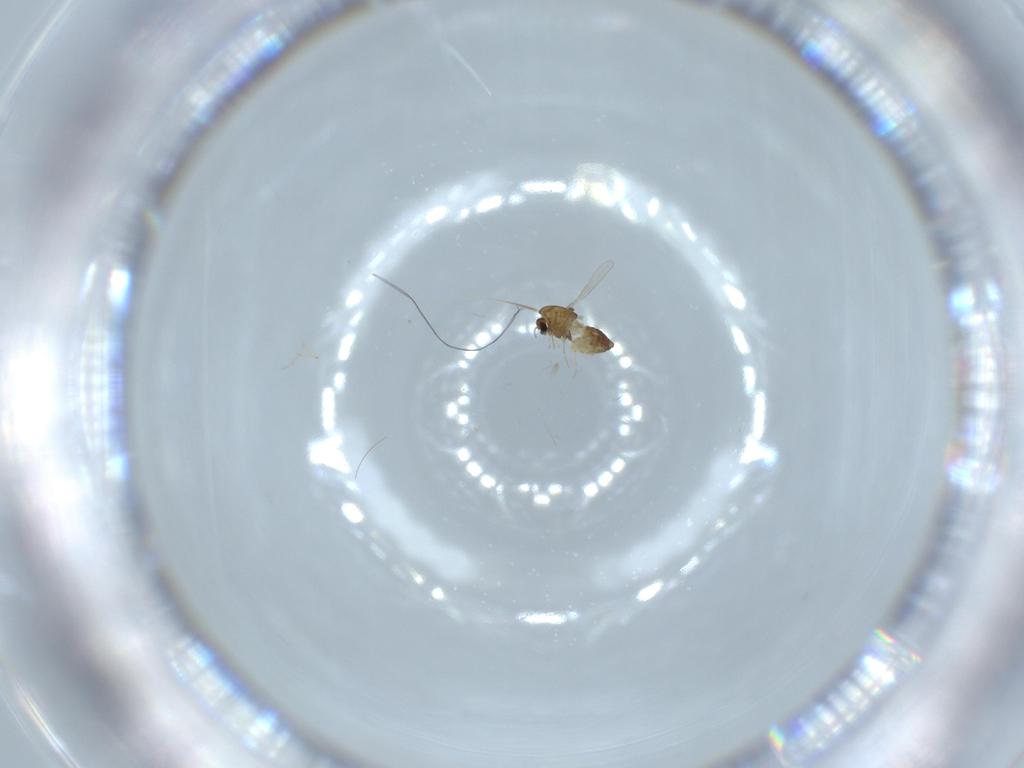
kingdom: Animalia
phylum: Arthropoda
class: Insecta
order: Diptera
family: Chironomidae
